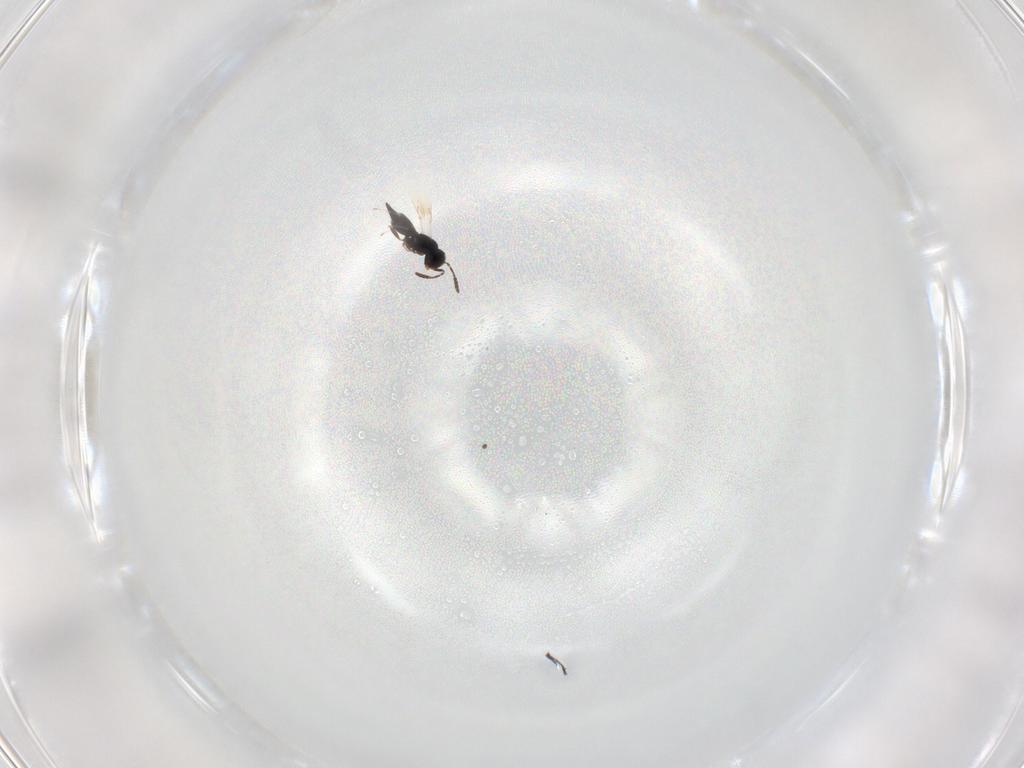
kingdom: Animalia
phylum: Arthropoda
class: Insecta
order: Hymenoptera
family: Scelionidae
